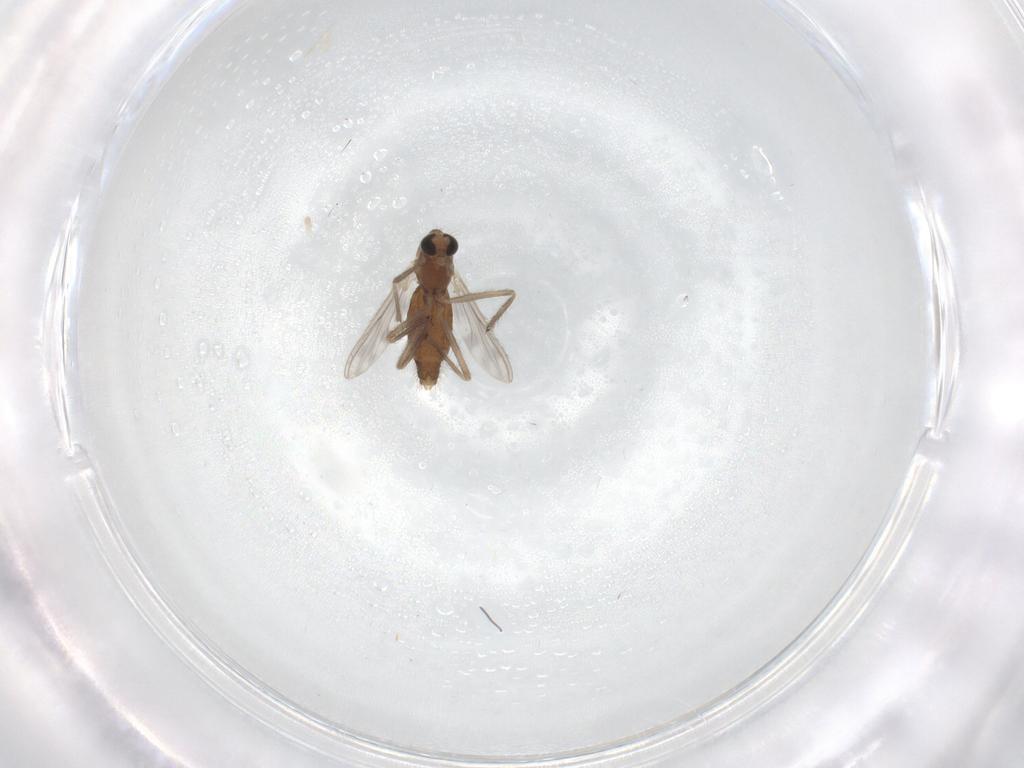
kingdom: Animalia
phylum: Arthropoda
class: Insecta
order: Diptera
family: Chironomidae
